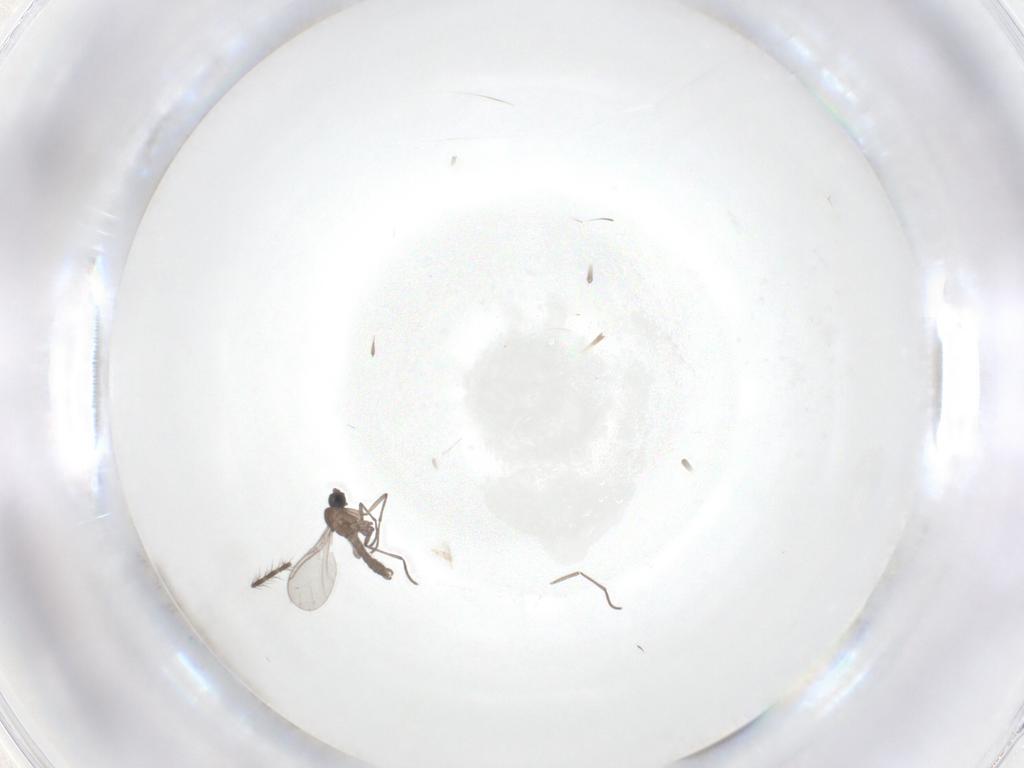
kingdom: Animalia
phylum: Arthropoda
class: Insecta
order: Diptera
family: Sciaridae
